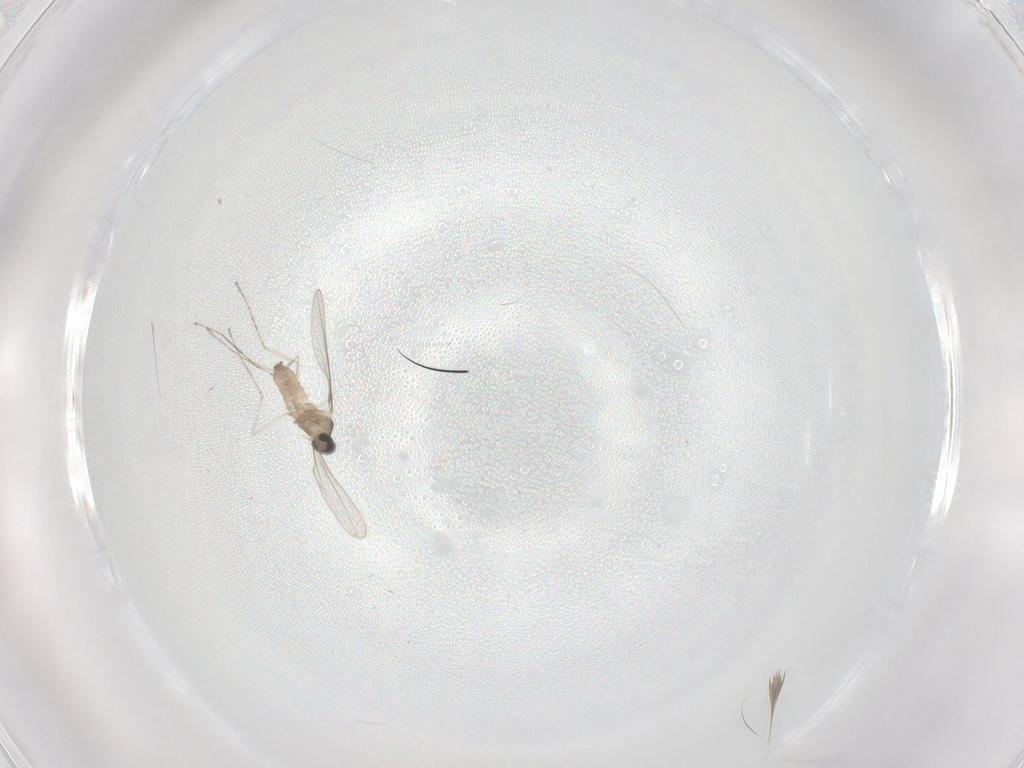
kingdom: Animalia
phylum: Arthropoda
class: Insecta
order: Diptera
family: Cecidomyiidae
